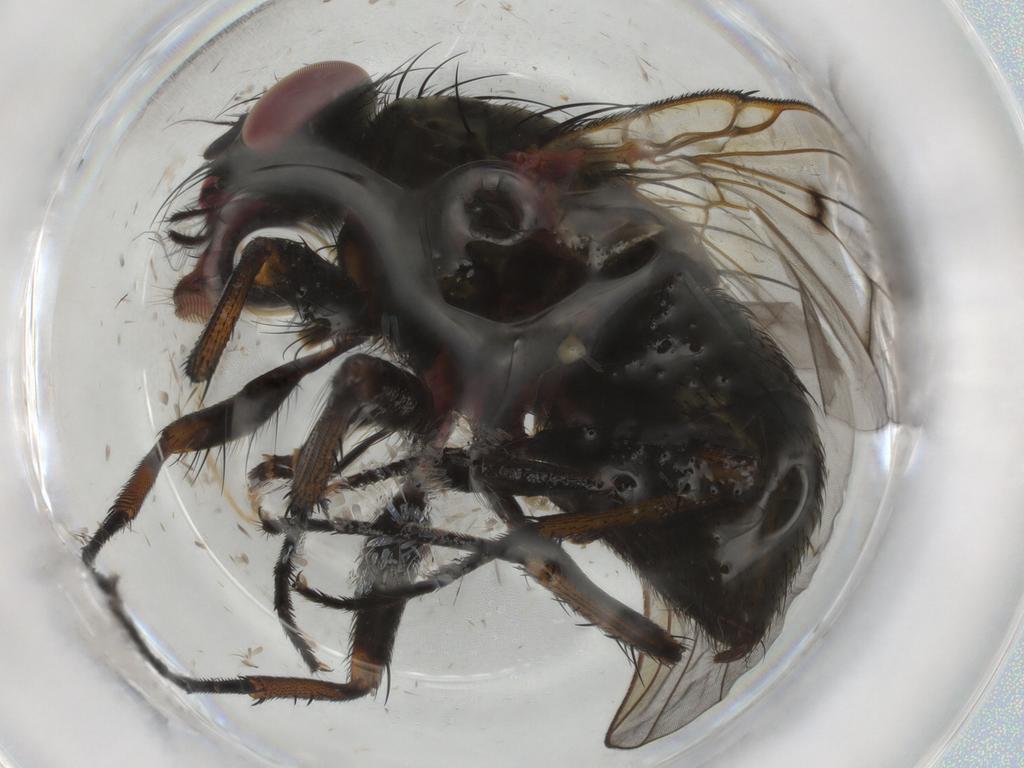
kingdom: Animalia
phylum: Arthropoda
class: Insecta
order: Diptera
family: Muscidae
